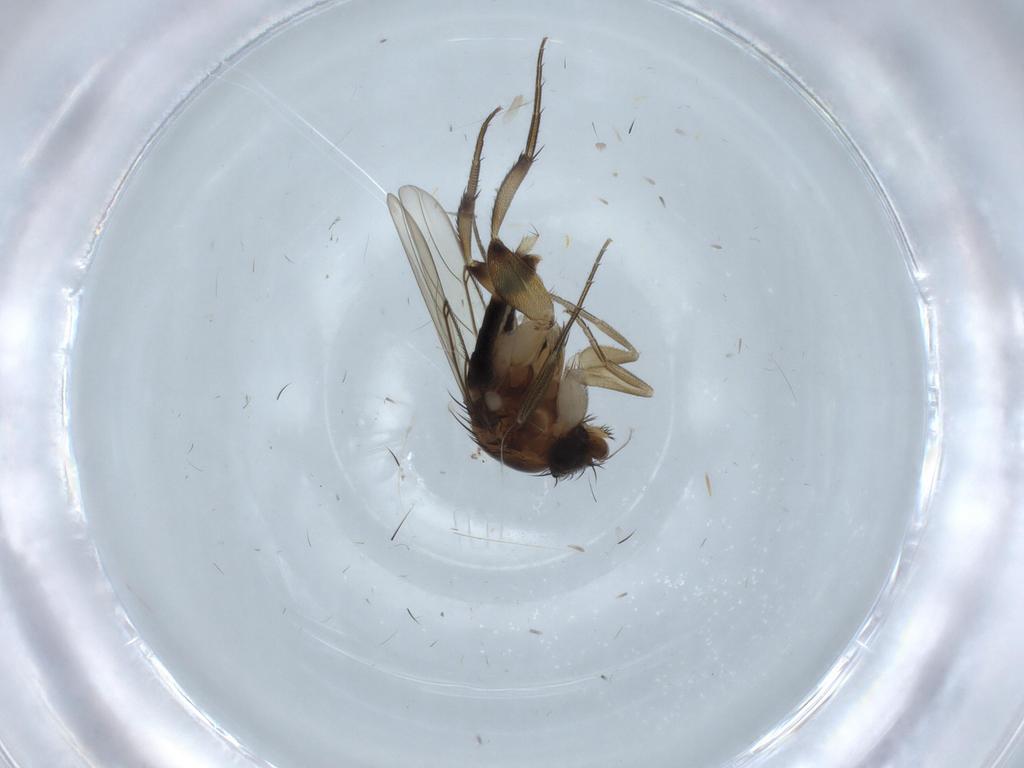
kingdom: Animalia
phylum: Arthropoda
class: Insecta
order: Diptera
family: Phoridae
